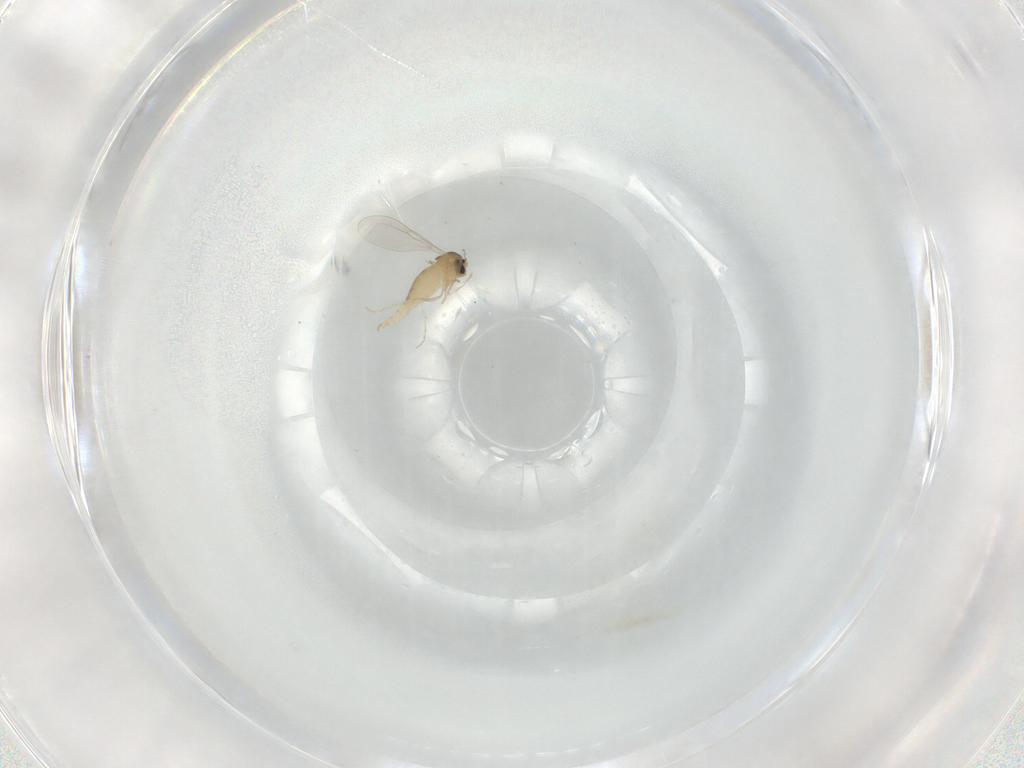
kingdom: Animalia
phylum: Arthropoda
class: Insecta
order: Diptera
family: Cecidomyiidae
